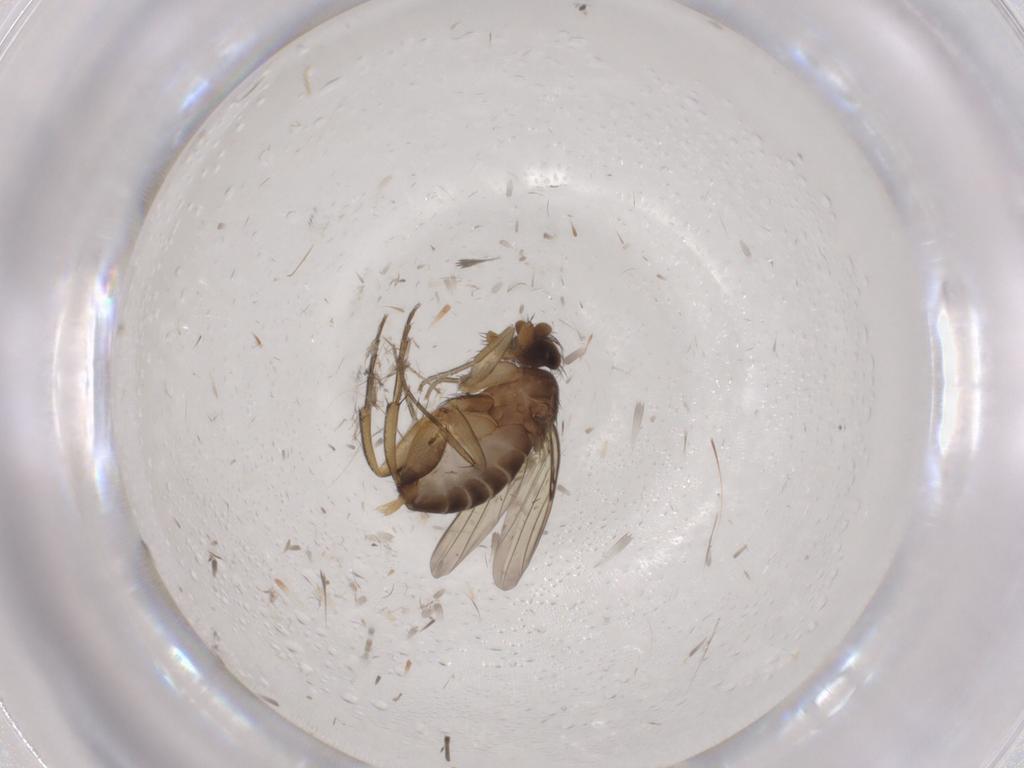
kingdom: Animalia
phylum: Arthropoda
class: Insecta
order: Diptera
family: Phoridae
